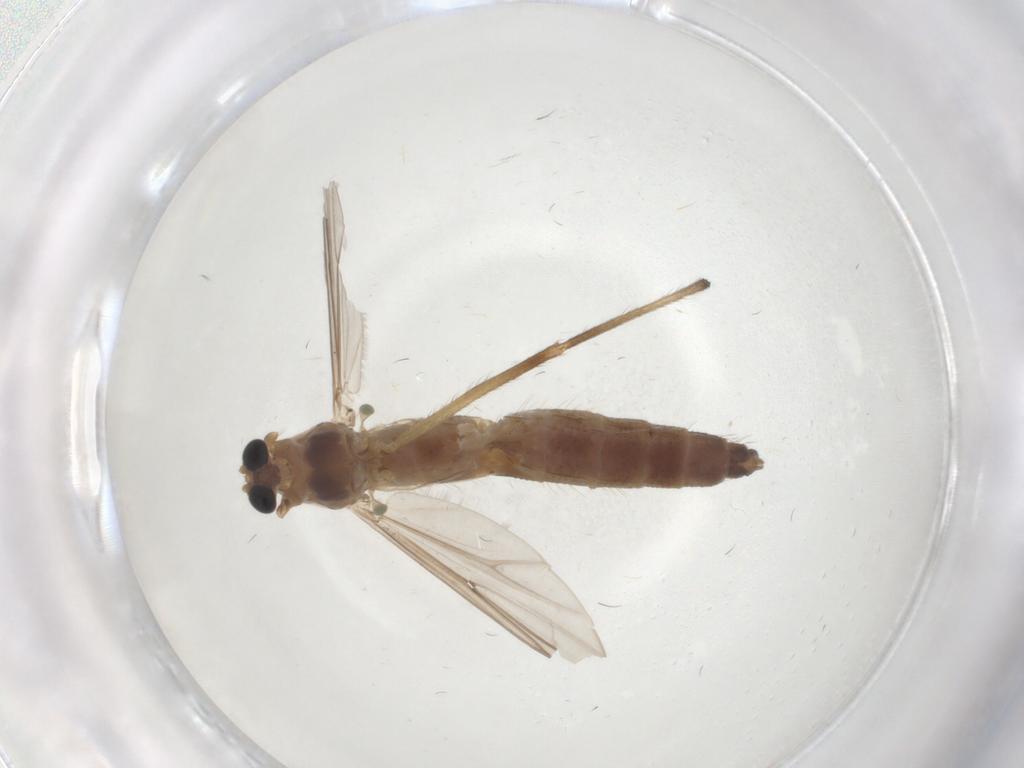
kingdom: Animalia
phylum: Arthropoda
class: Insecta
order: Diptera
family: Chironomidae
